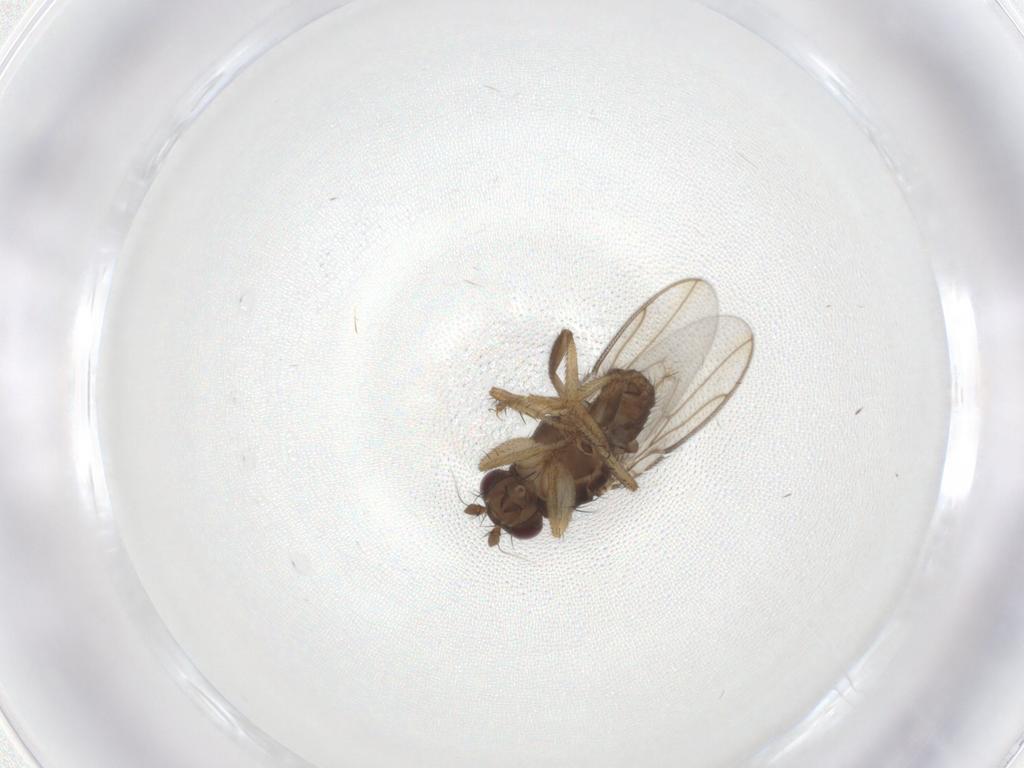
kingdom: Animalia
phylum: Arthropoda
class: Insecta
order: Diptera
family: Sphaeroceridae
